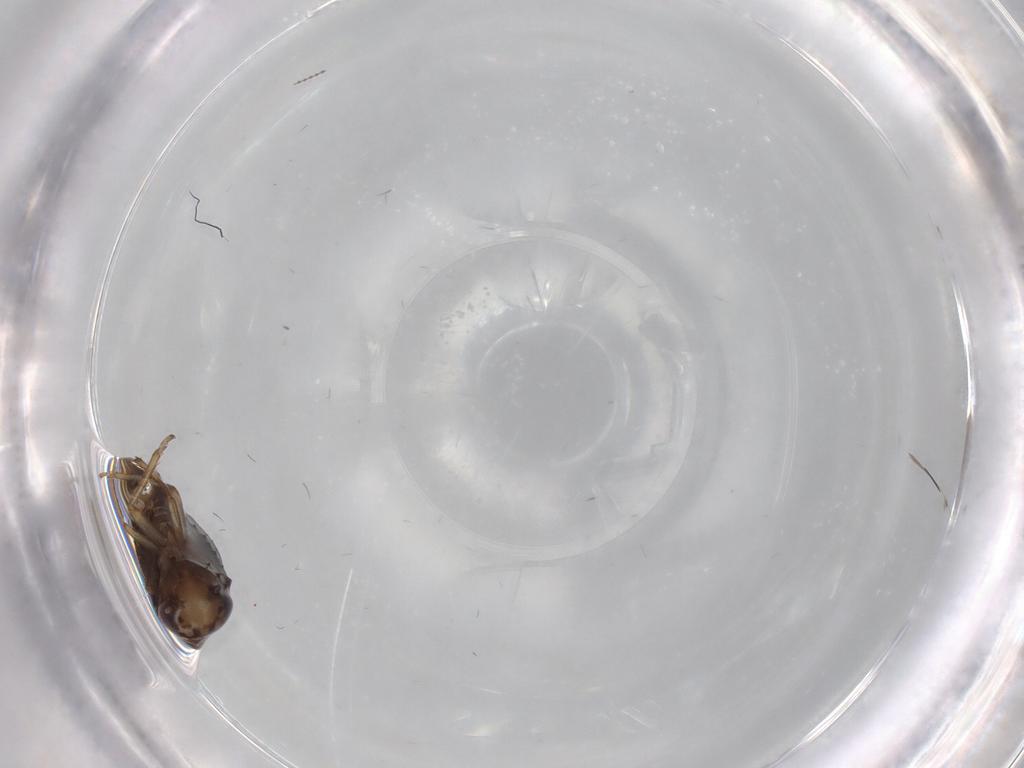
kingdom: Animalia
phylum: Arthropoda
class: Insecta
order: Hemiptera
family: Cicadellidae
